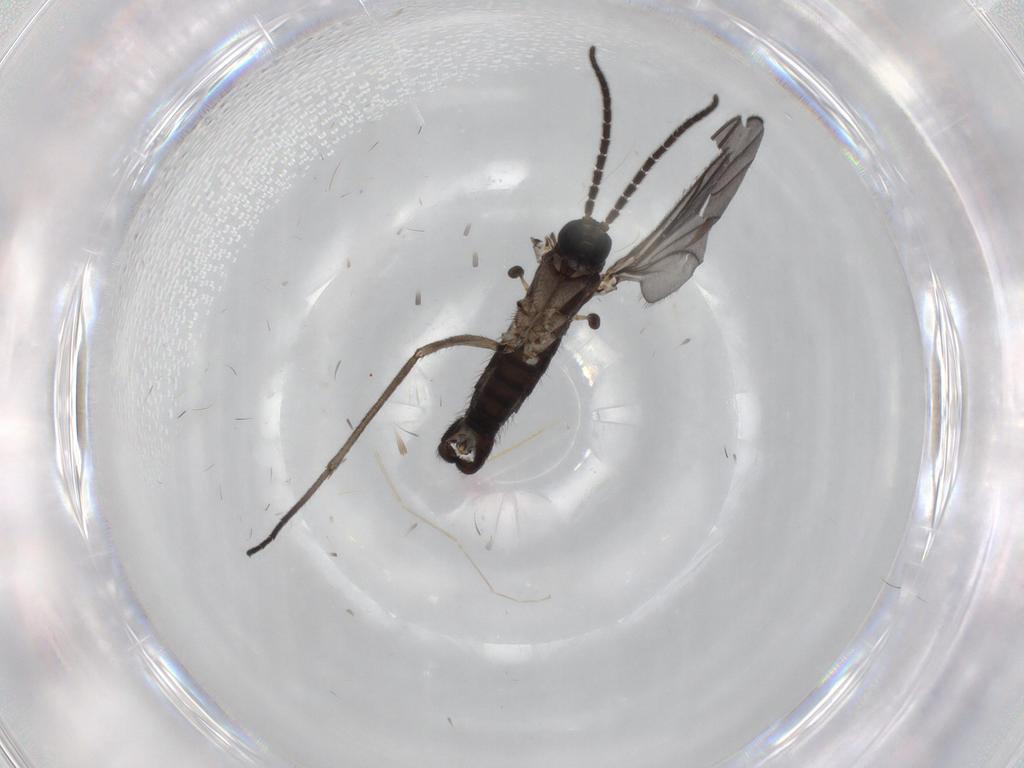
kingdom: Animalia
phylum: Arthropoda
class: Insecta
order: Diptera
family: Sciaridae
